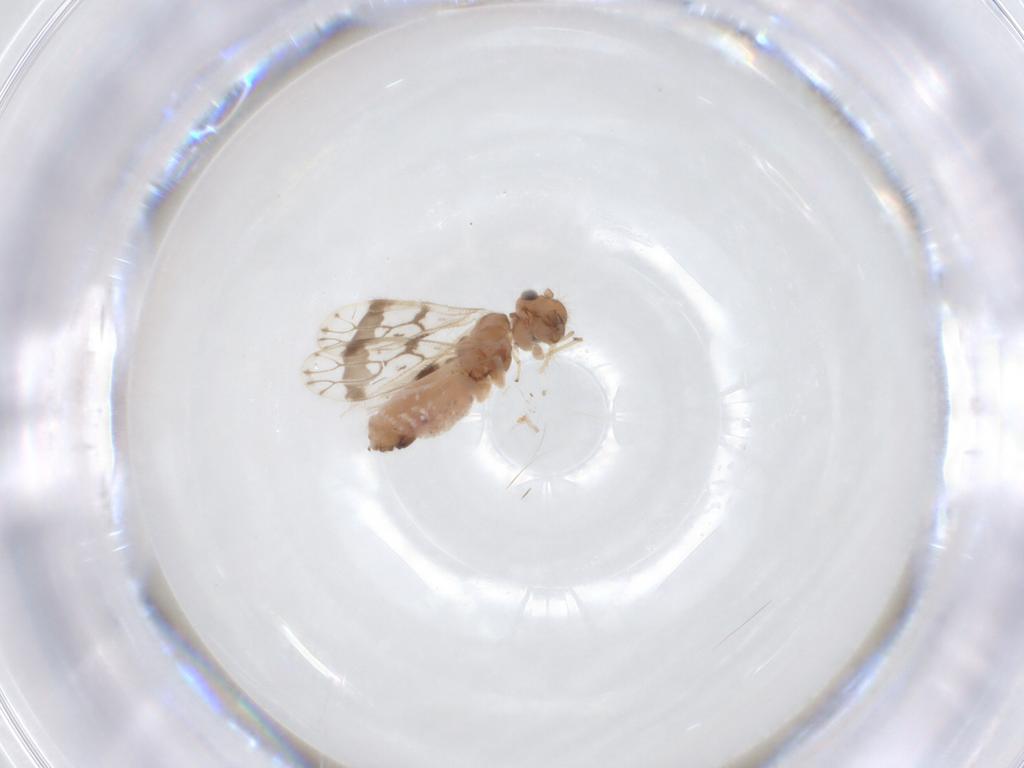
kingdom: Animalia
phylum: Arthropoda
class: Insecta
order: Psocodea
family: Pseudocaeciliidae
